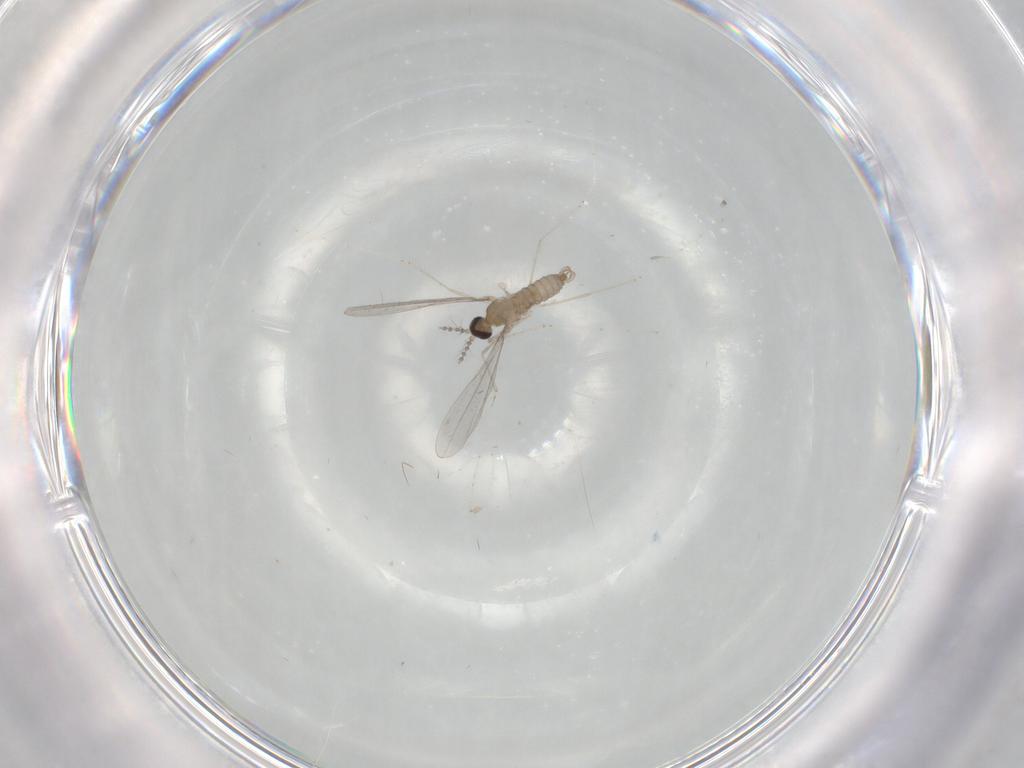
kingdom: Animalia
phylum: Arthropoda
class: Insecta
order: Diptera
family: Cecidomyiidae
